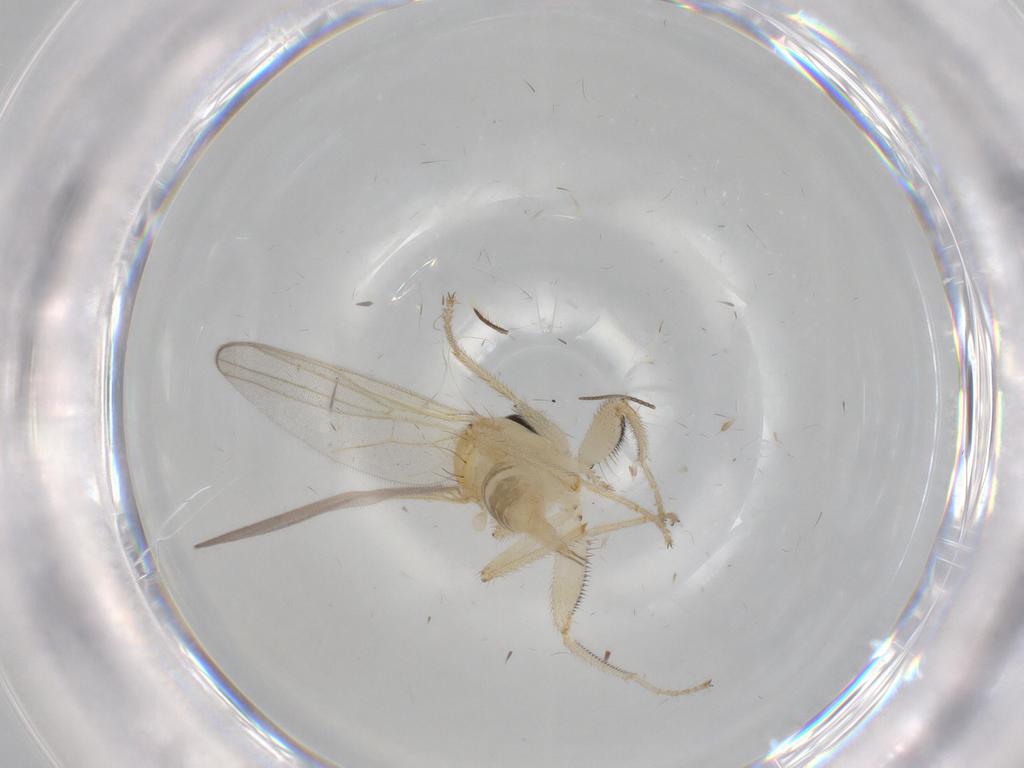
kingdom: Animalia
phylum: Arthropoda
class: Insecta
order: Diptera
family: Hybotidae
